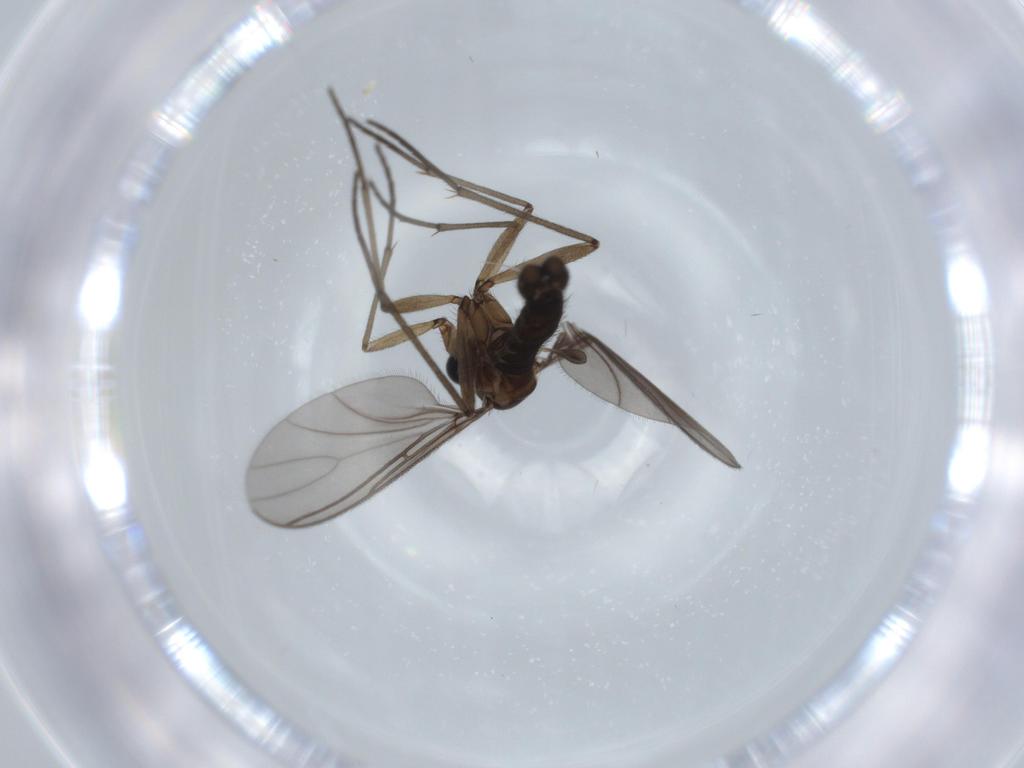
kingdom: Animalia
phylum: Arthropoda
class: Insecta
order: Diptera
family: Sciaridae
